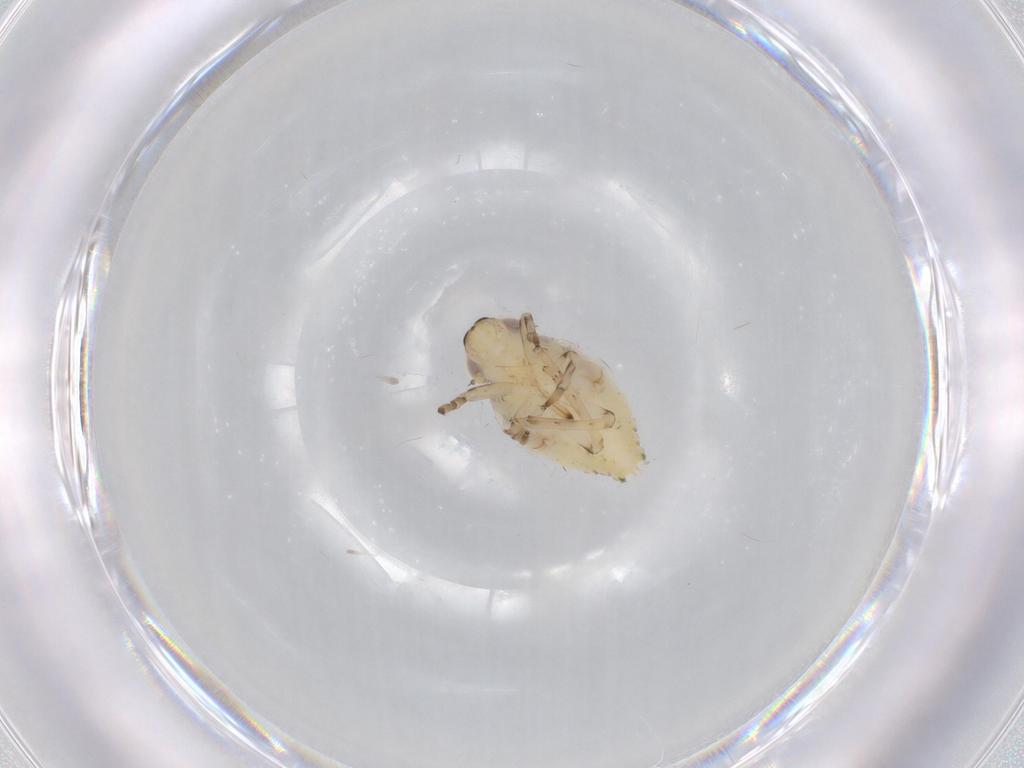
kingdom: Animalia
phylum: Arthropoda
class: Insecta
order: Hemiptera
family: Issidae
